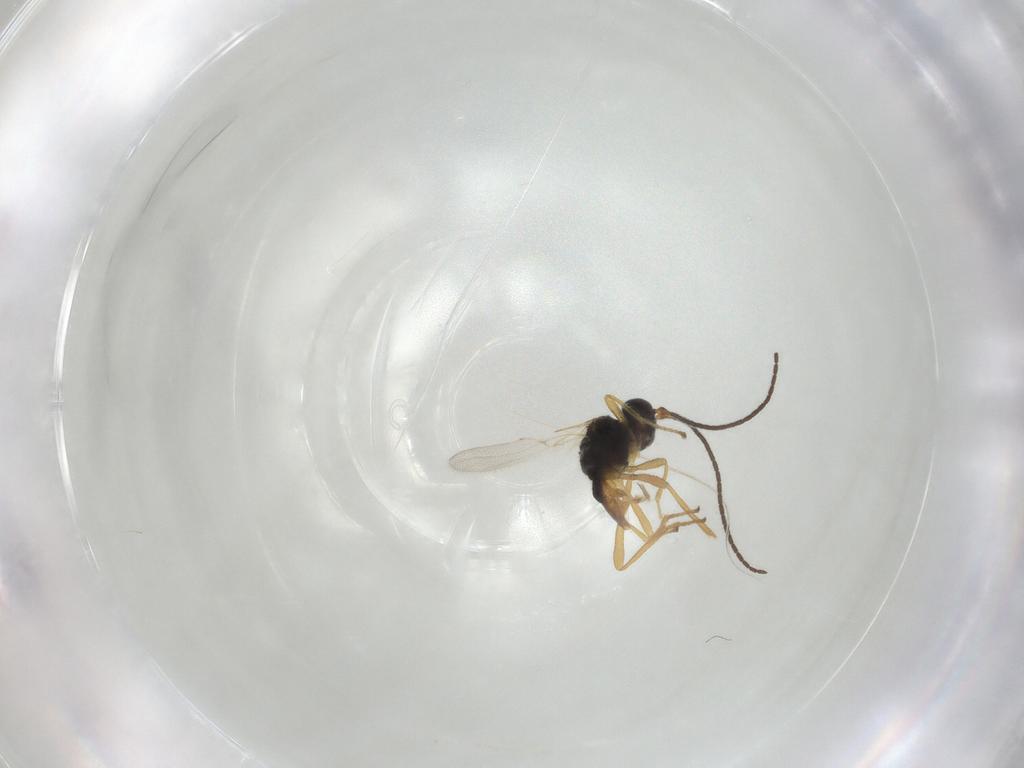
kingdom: Animalia
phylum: Arthropoda
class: Insecta
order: Hymenoptera
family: Braconidae
